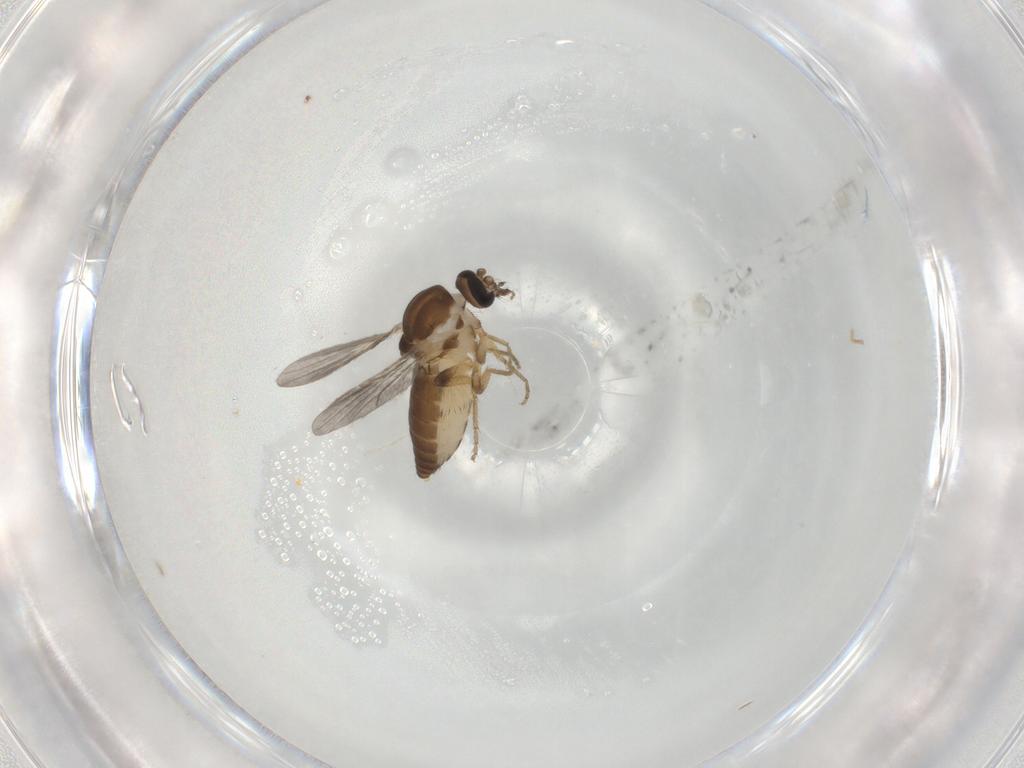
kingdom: Animalia
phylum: Arthropoda
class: Insecta
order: Diptera
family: Ceratopogonidae
